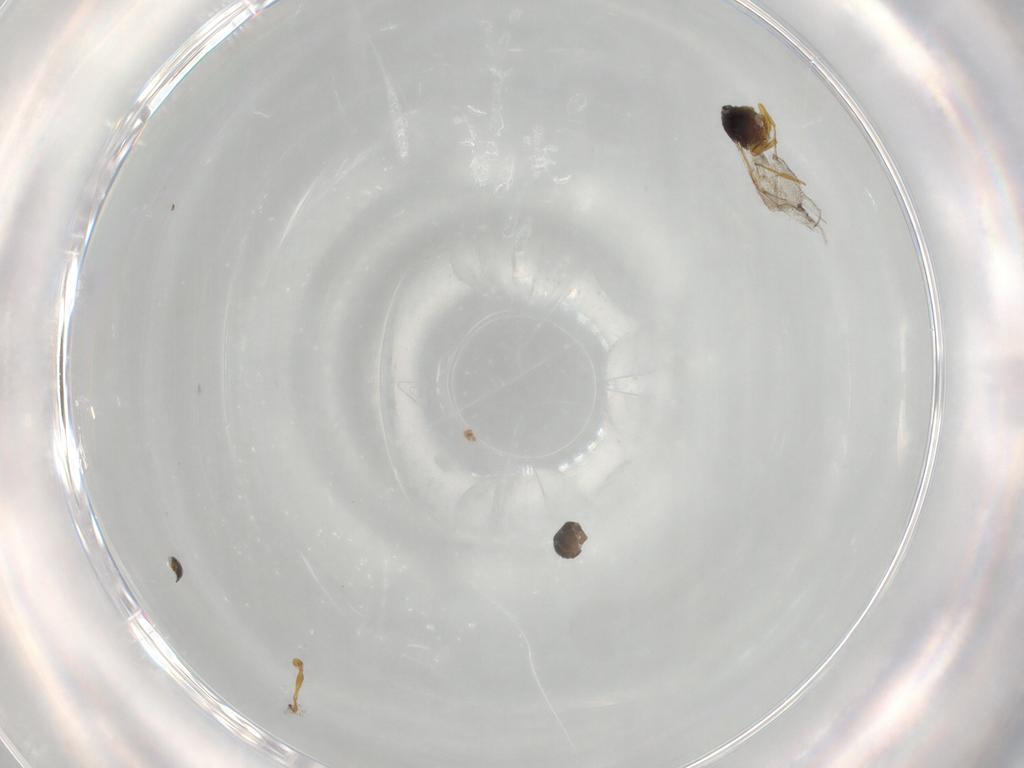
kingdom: Animalia
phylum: Arthropoda
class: Insecta
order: Hymenoptera
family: Figitidae
